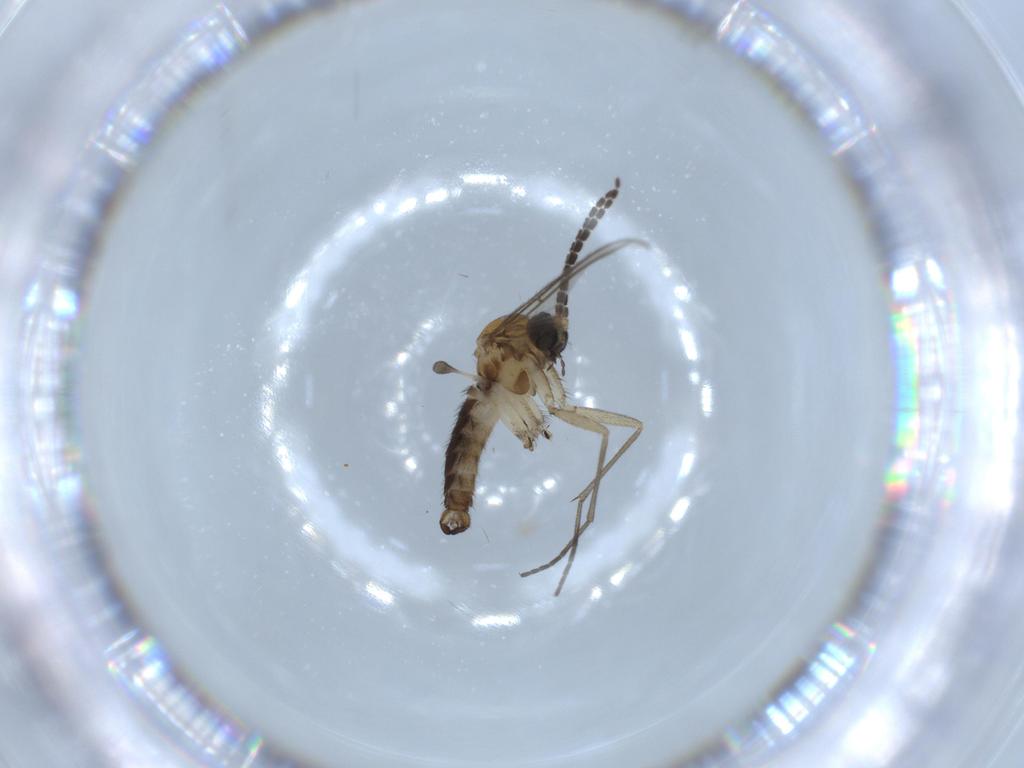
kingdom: Animalia
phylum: Arthropoda
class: Insecta
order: Diptera
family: Sciaridae
